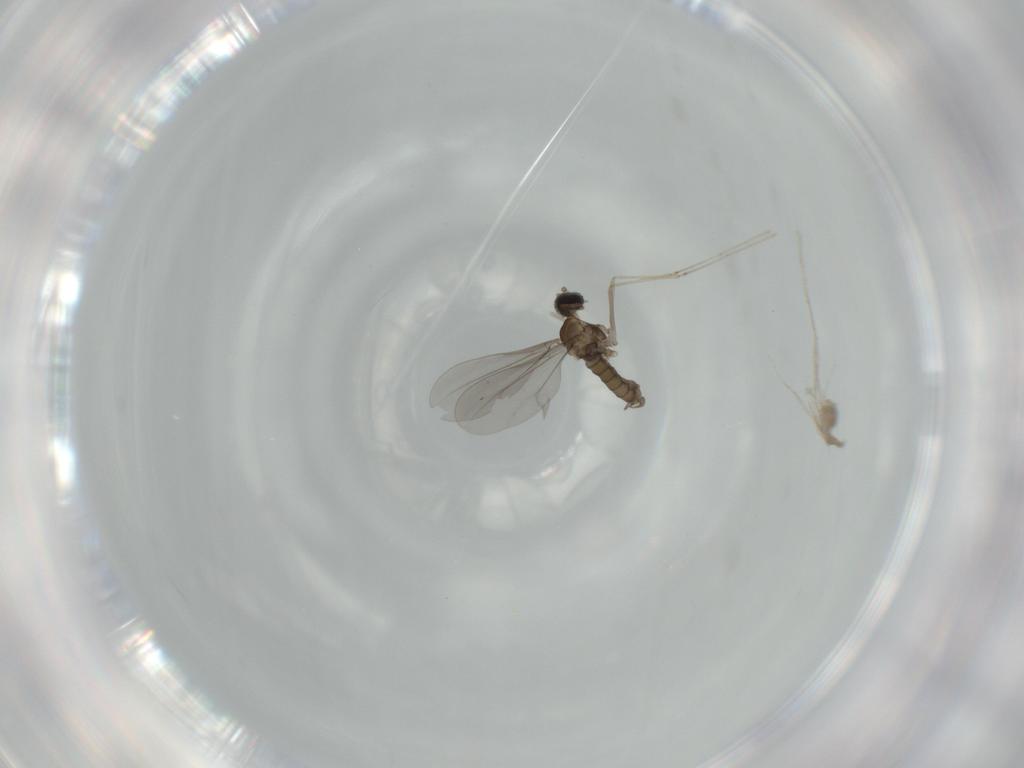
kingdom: Animalia
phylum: Arthropoda
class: Insecta
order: Diptera
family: Cecidomyiidae
